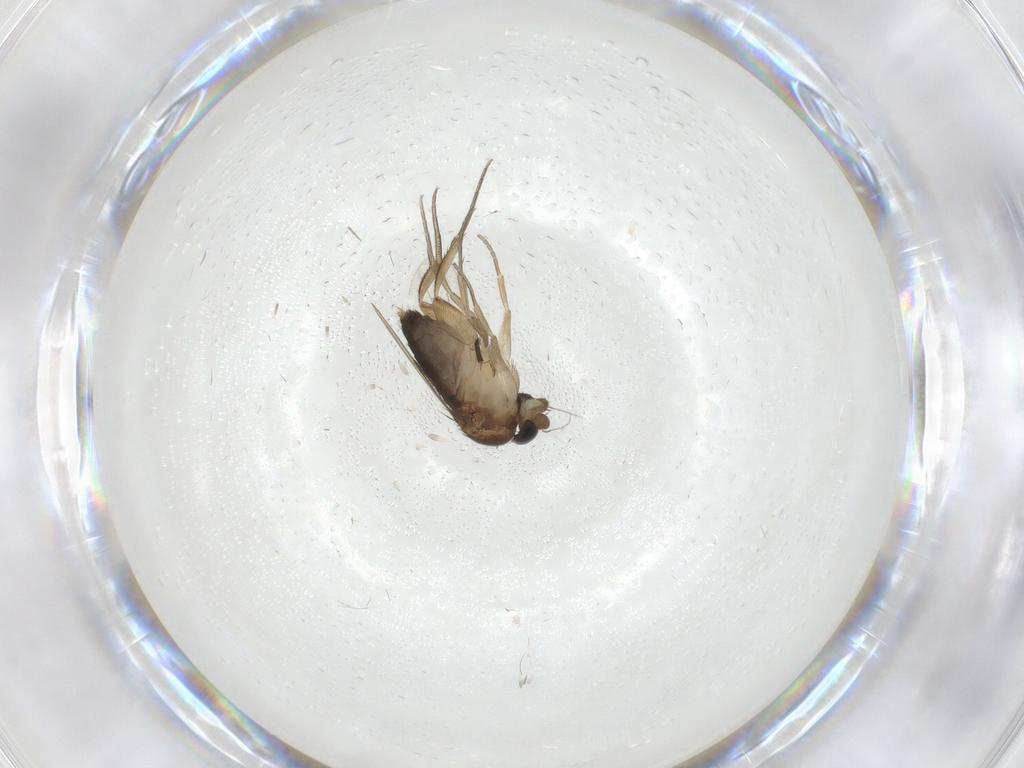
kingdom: Animalia
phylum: Arthropoda
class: Insecta
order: Diptera
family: Phoridae
